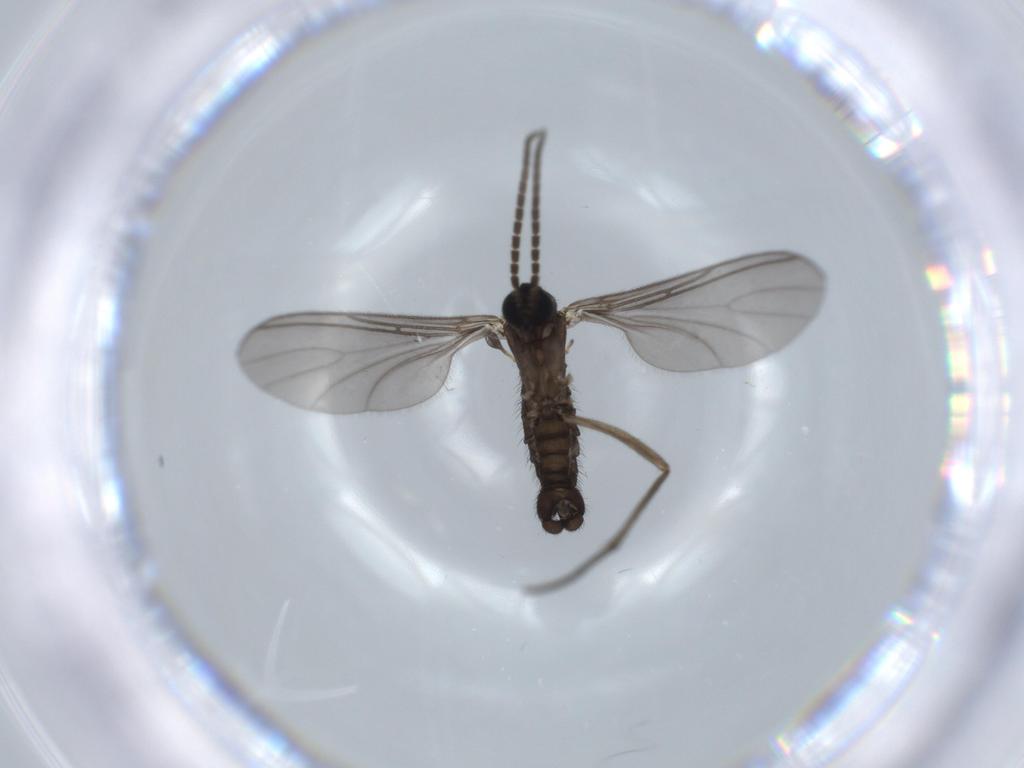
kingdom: Animalia
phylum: Arthropoda
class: Insecta
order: Diptera
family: Sciaridae
